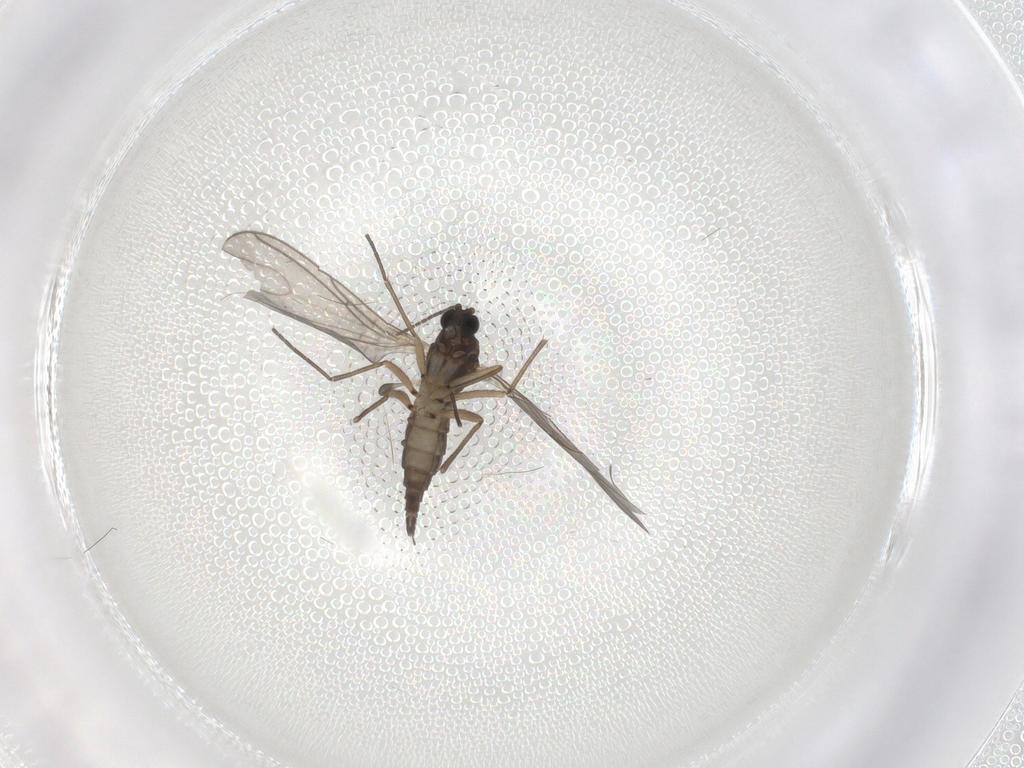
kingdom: Animalia
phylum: Arthropoda
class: Insecta
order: Diptera
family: Sciaridae
